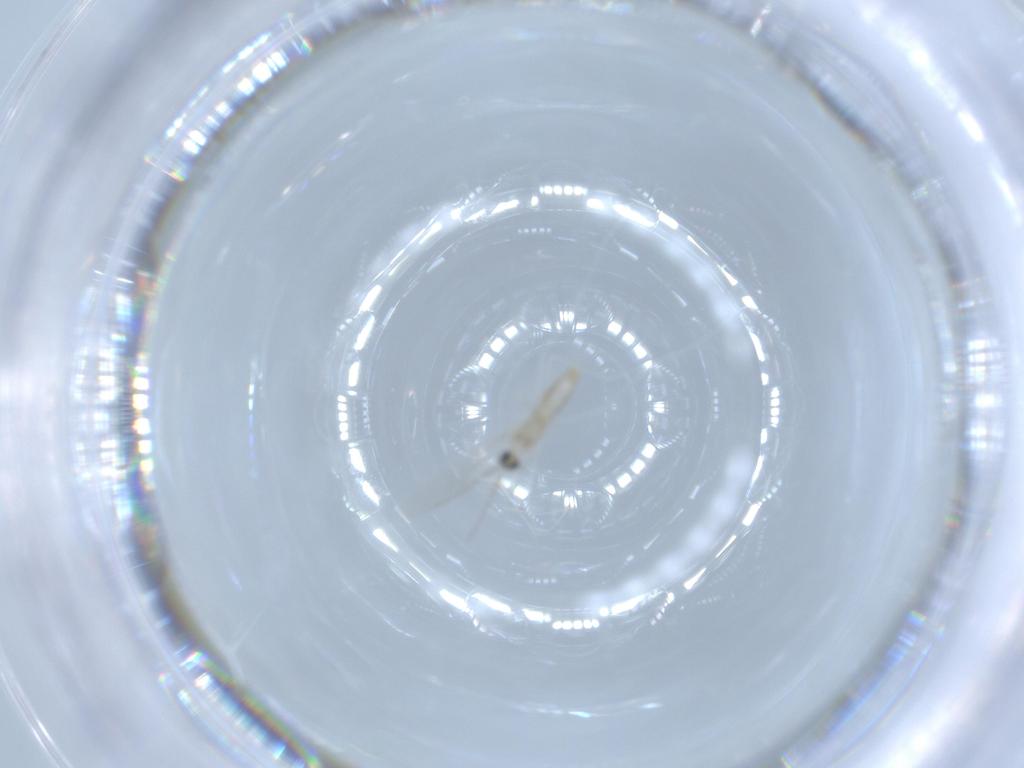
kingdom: Animalia
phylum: Arthropoda
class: Insecta
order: Diptera
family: Cecidomyiidae
